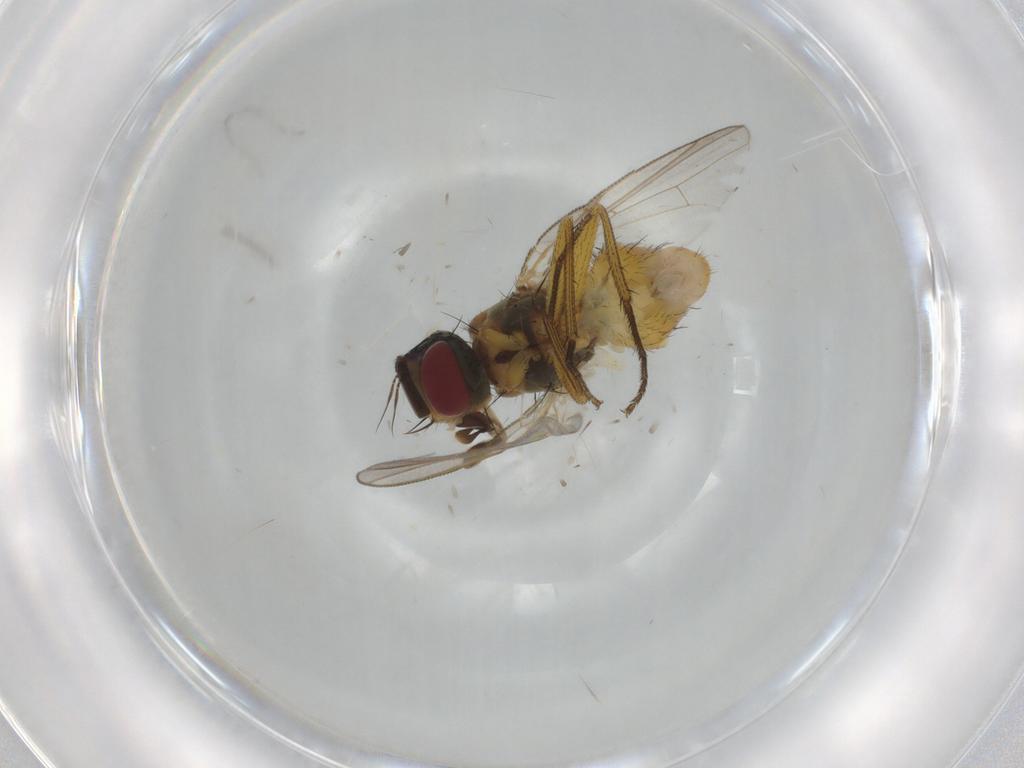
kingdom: Animalia
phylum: Arthropoda
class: Insecta
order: Diptera
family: Muscidae
